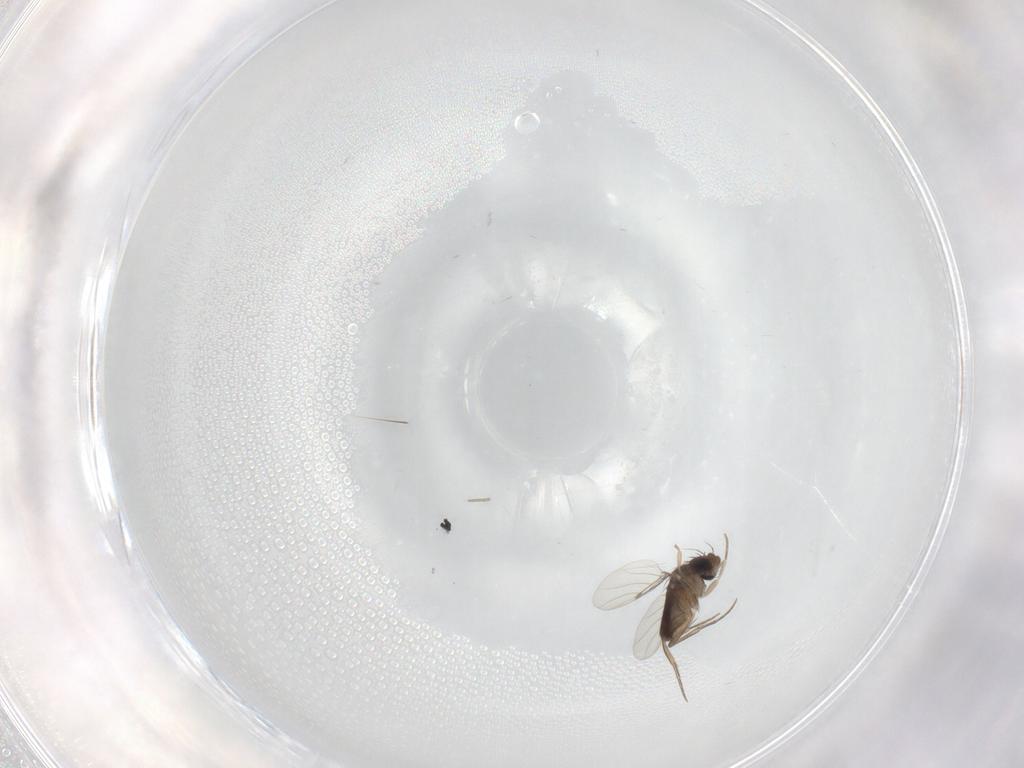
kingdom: Animalia
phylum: Arthropoda
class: Insecta
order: Diptera
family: Phoridae
